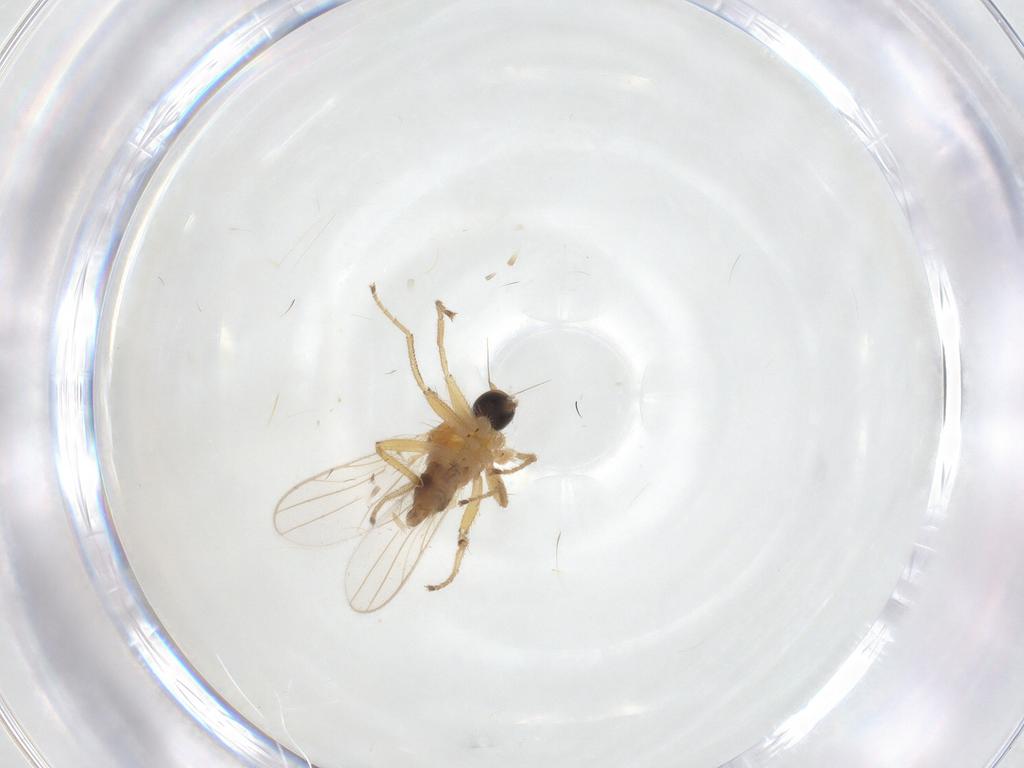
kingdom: Animalia
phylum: Arthropoda
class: Insecta
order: Diptera
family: Hybotidae
